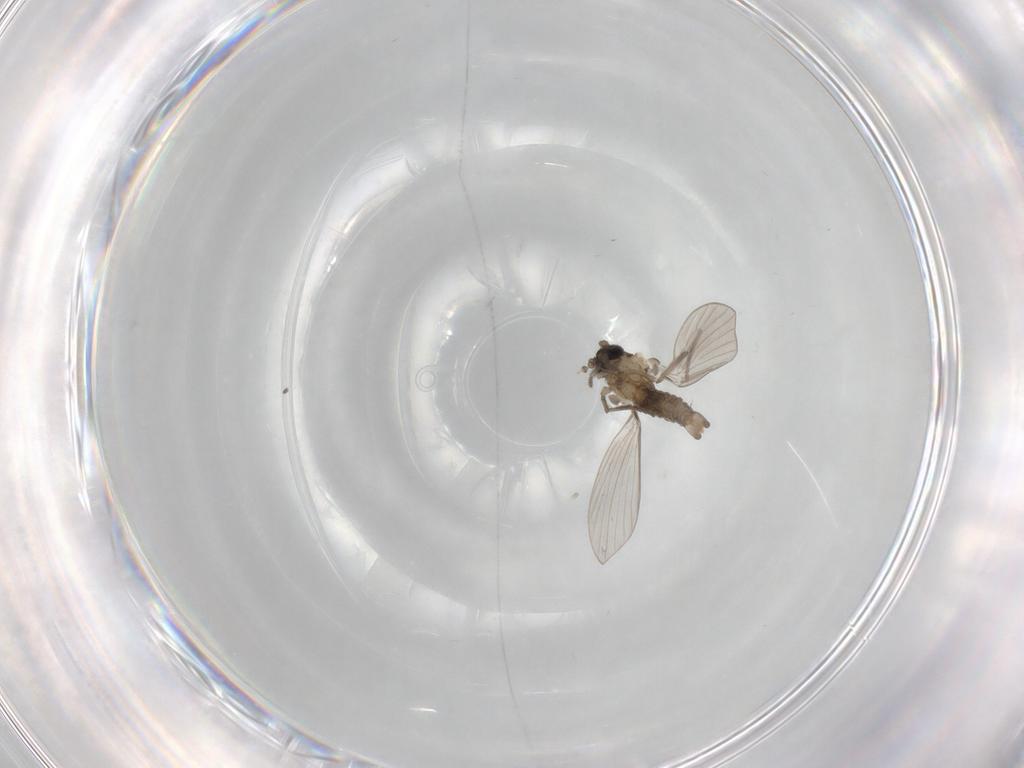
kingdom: Animalia
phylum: Arthropoda
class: Insecta
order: Diptera
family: Drosophilidae
